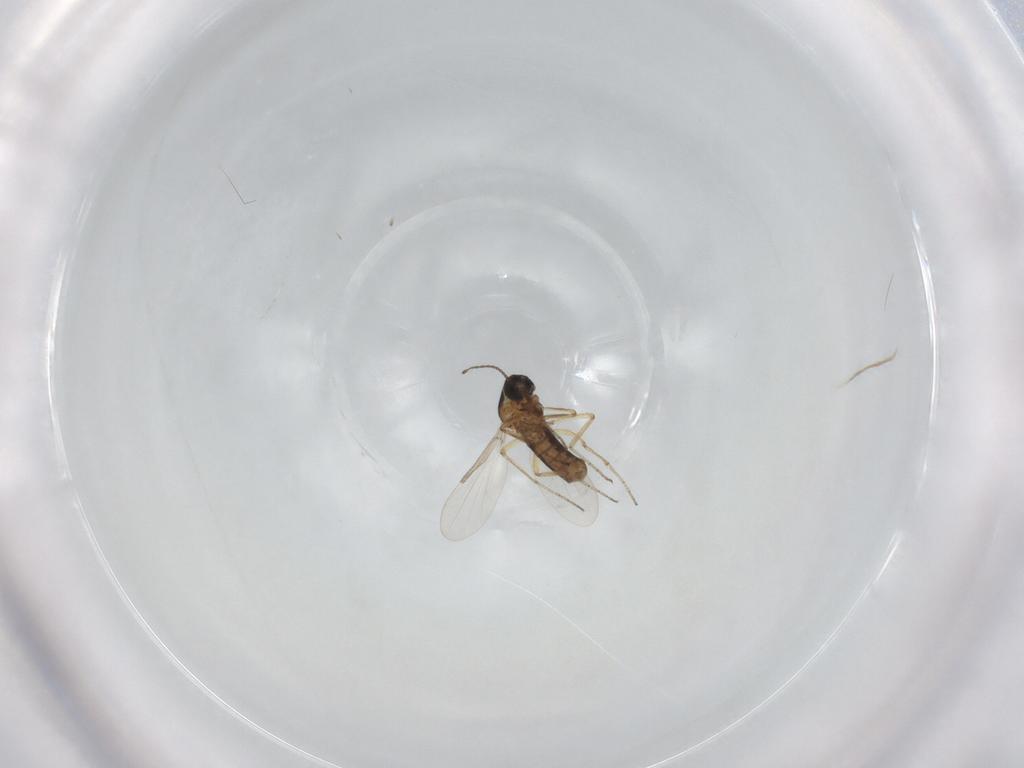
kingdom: Animalia
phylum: Arthropoda
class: Insecta
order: Diptera
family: Ceratopogonidae
